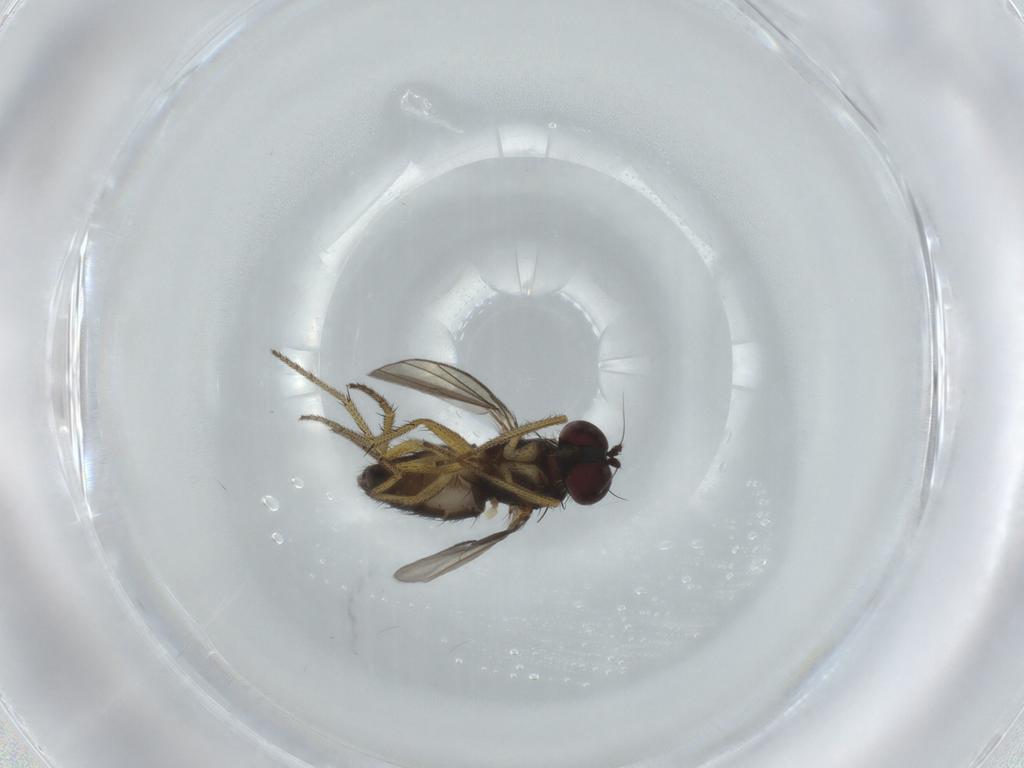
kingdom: Animalia
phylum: Arthropoda
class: Insecta
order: Diptera
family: Dolichopodidae
